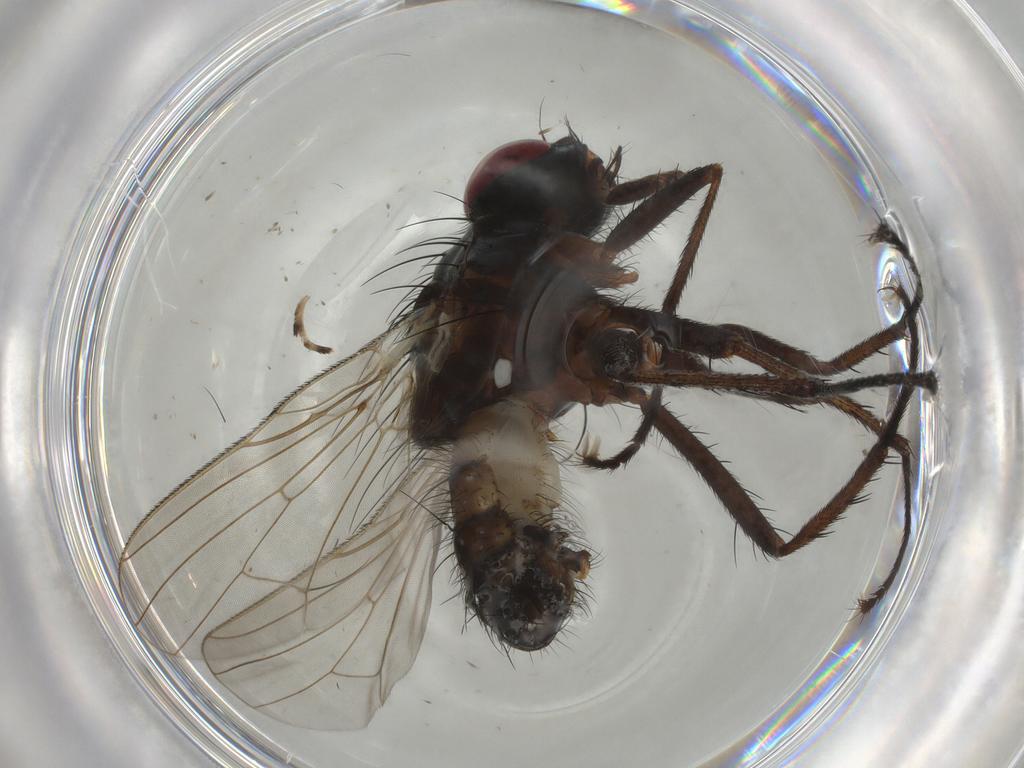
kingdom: Animalia
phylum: Arthropoda
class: Insecta
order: Diptera
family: Anthomyiidae
